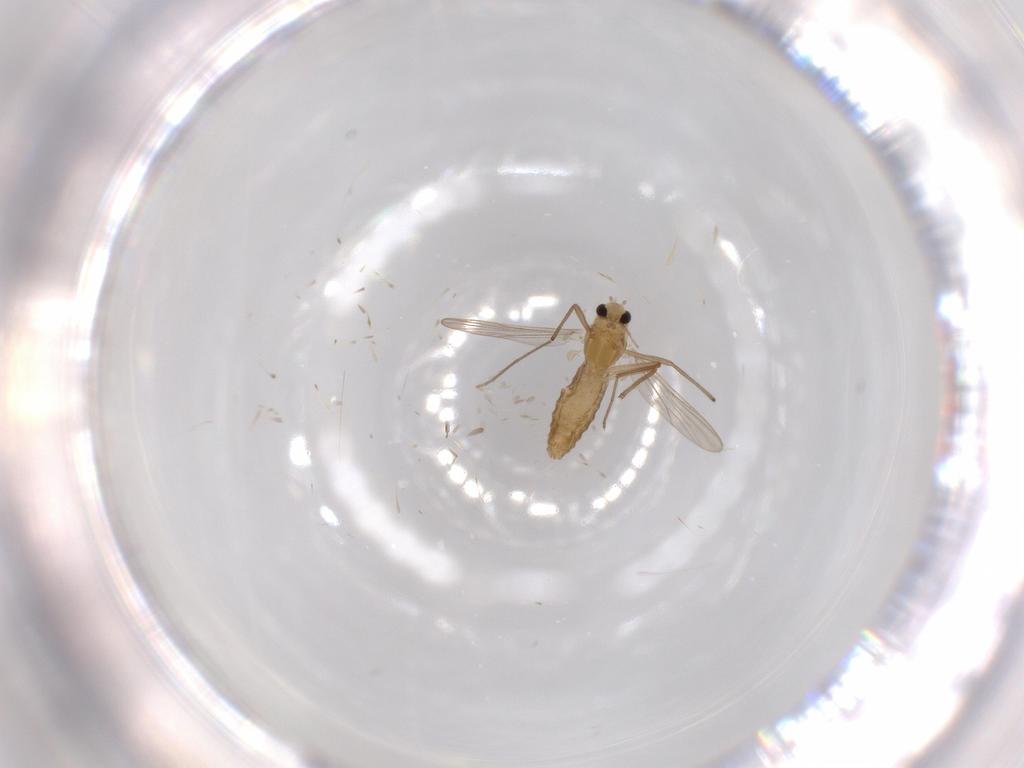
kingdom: Animalia
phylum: Arthropoda
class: Insecta
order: Diptera
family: Chironomidae
